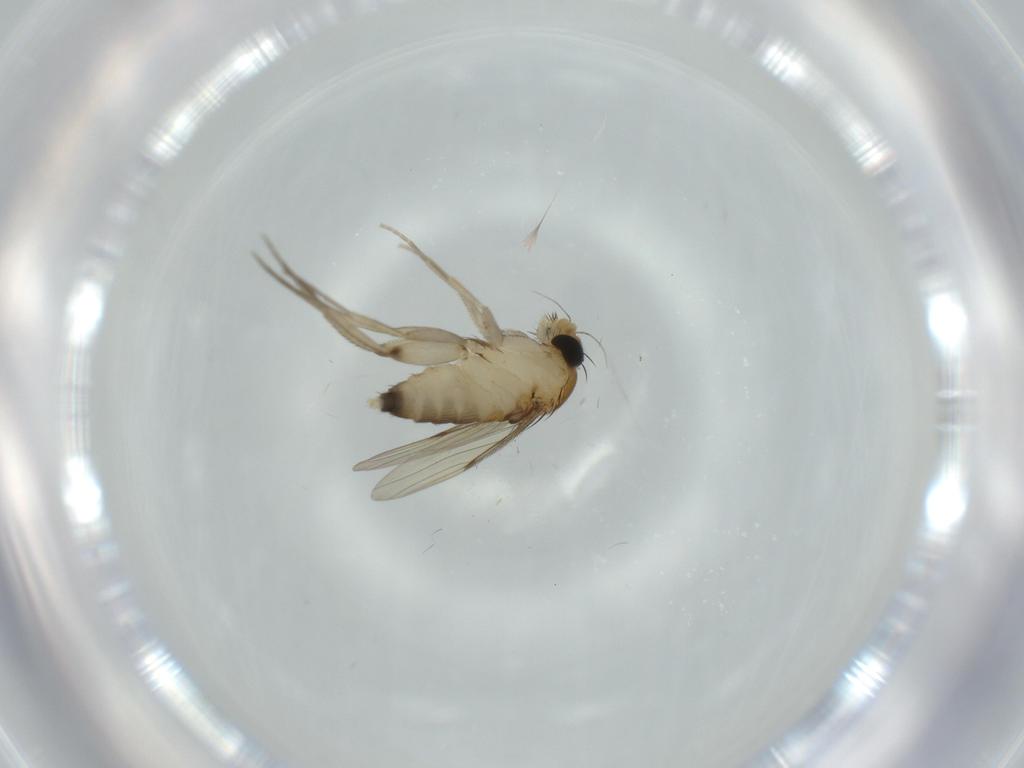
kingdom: Animalia
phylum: Arthropoda
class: Insecta
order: Diptera
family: Phoridae
